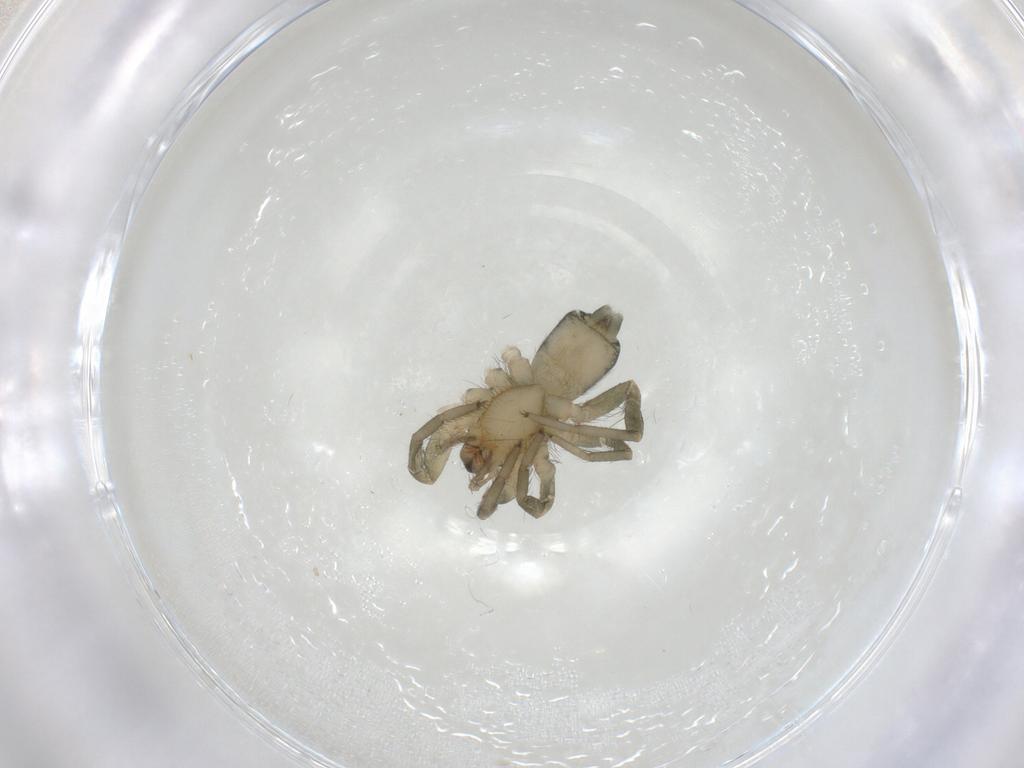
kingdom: Animalia
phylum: Arthropoda
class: Arachnida
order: Araneae
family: Gnaphosidae
